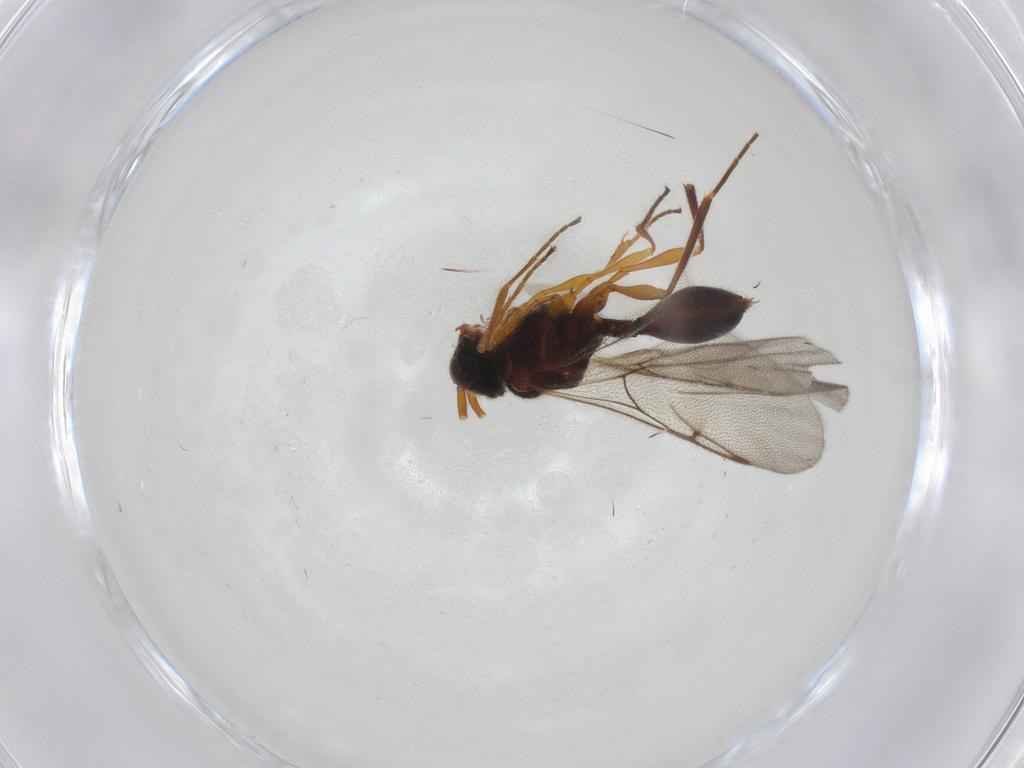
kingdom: Animalia
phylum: Arthropoda
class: Insecta
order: Hymenoptera
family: Diapriidae
